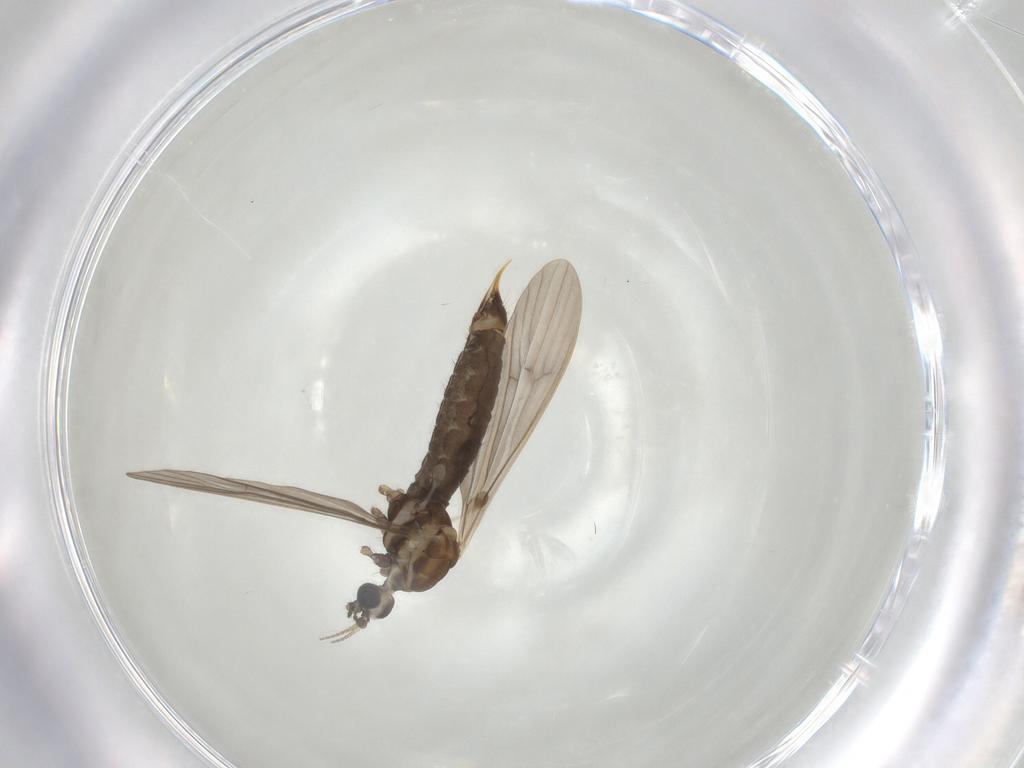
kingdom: Animalia
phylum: Arthropoda
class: Insecta
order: Diptera
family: Limoniidae
